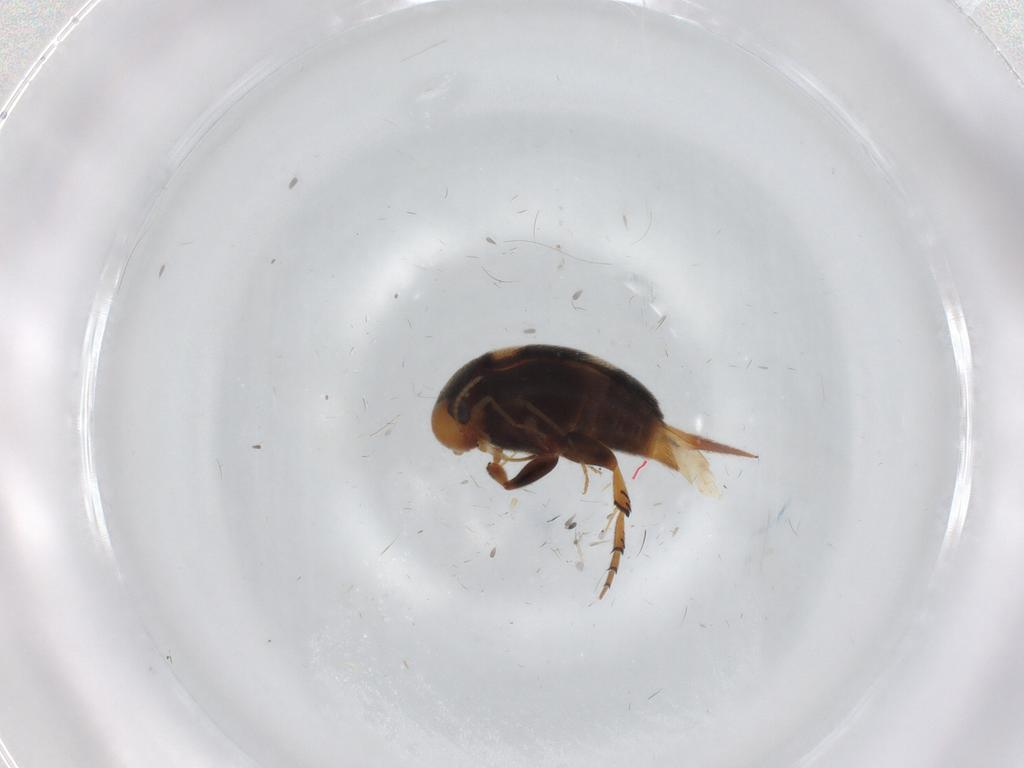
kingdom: Animalia
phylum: Arthropoda
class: Insecta
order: Coleoptera
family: Mordellidae
